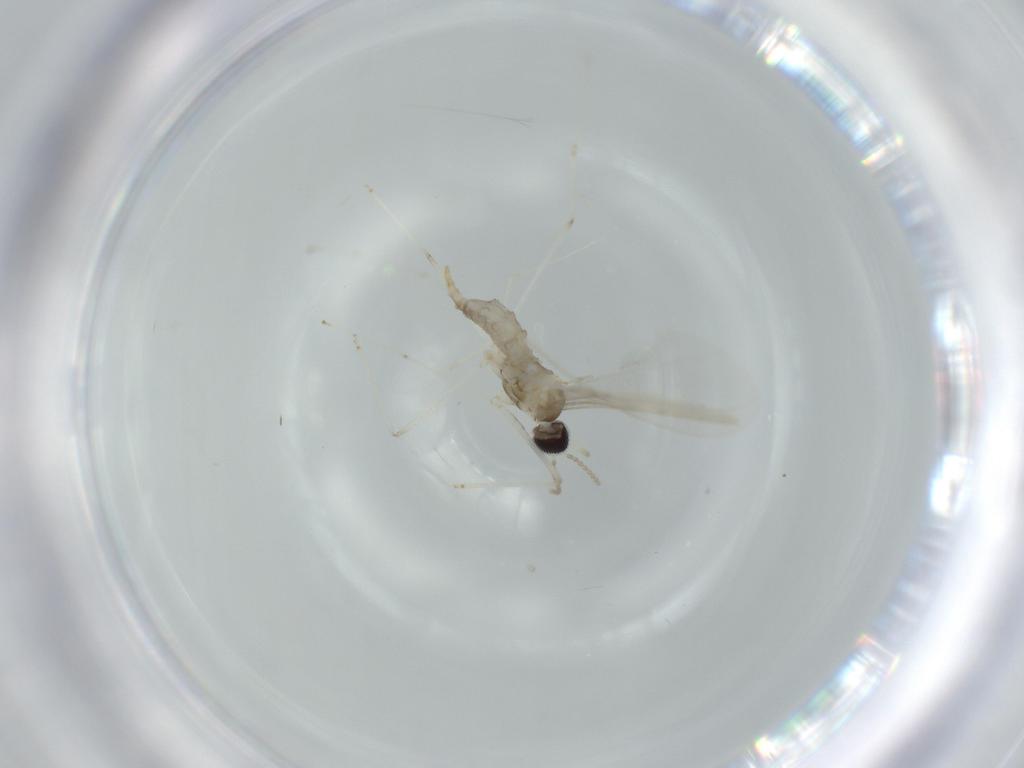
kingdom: Animalia
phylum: Arthropoda
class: Insecta
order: Diptera
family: Cecidomyiidae
